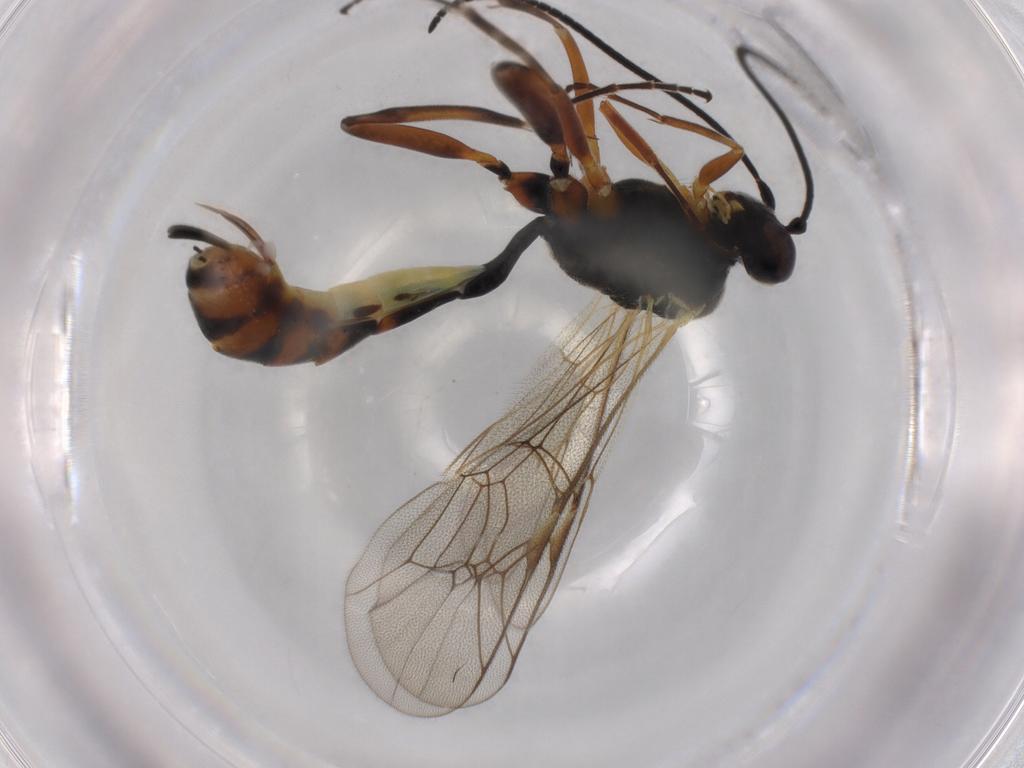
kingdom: Animalia
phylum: Arthropoda
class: Insecta
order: Hymenoptera
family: Ichneumonidae
